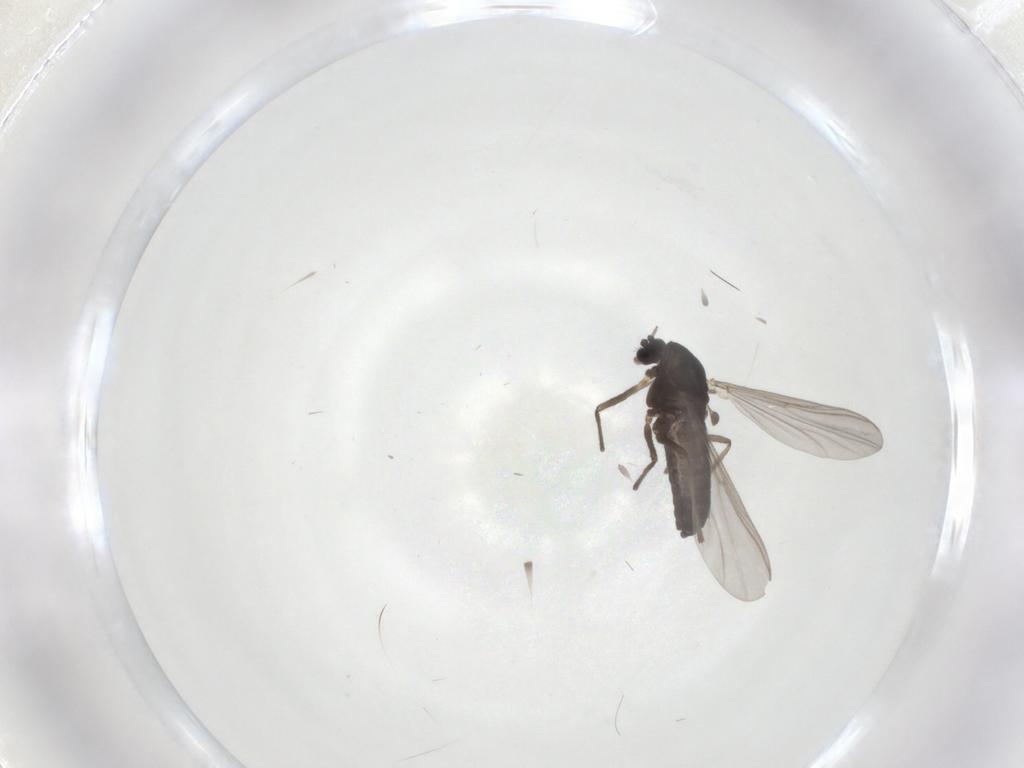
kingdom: Animalia
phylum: Arthropoda
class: Insecta
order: Diptera
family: Chironomidae
